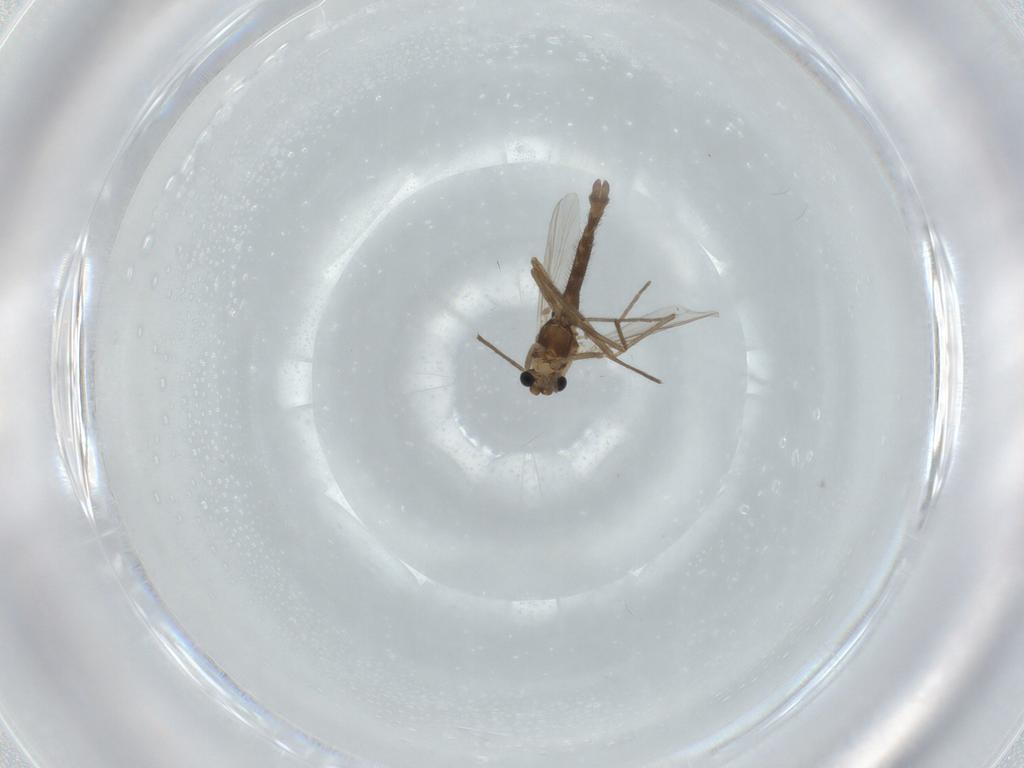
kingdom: Animalia
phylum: Arthropoda
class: Insecta
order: Diptera
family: Chironomidae
